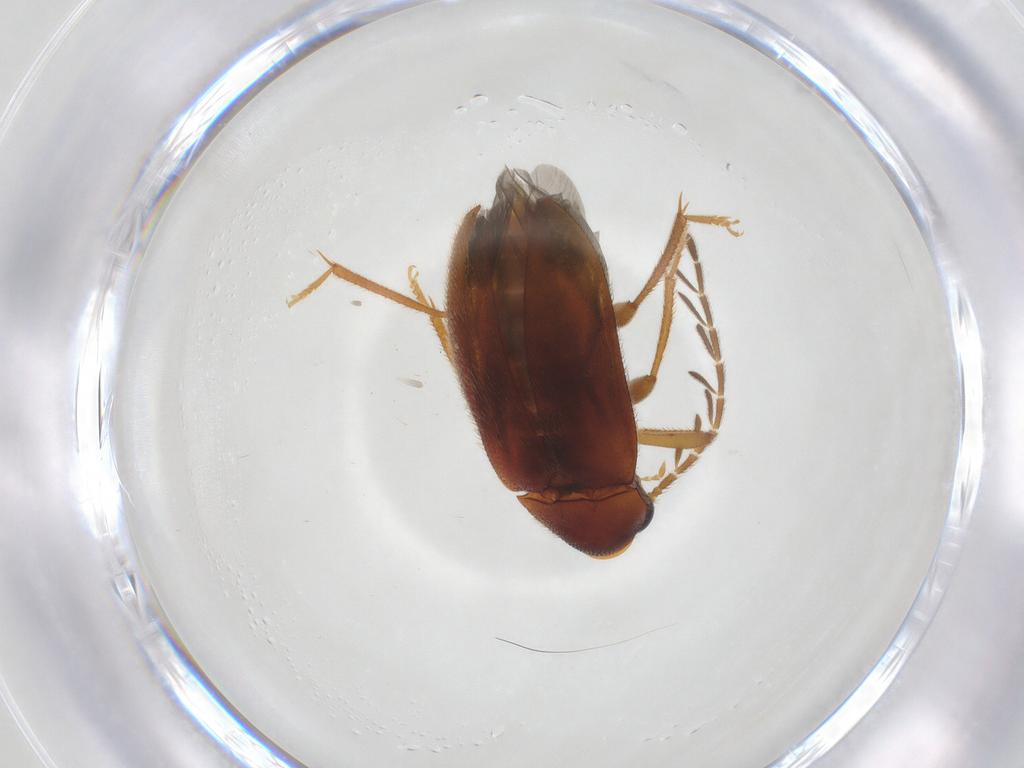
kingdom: Animalia
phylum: Arthropoda
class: Insecta
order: Coleoptera
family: Ptilodactylidae
